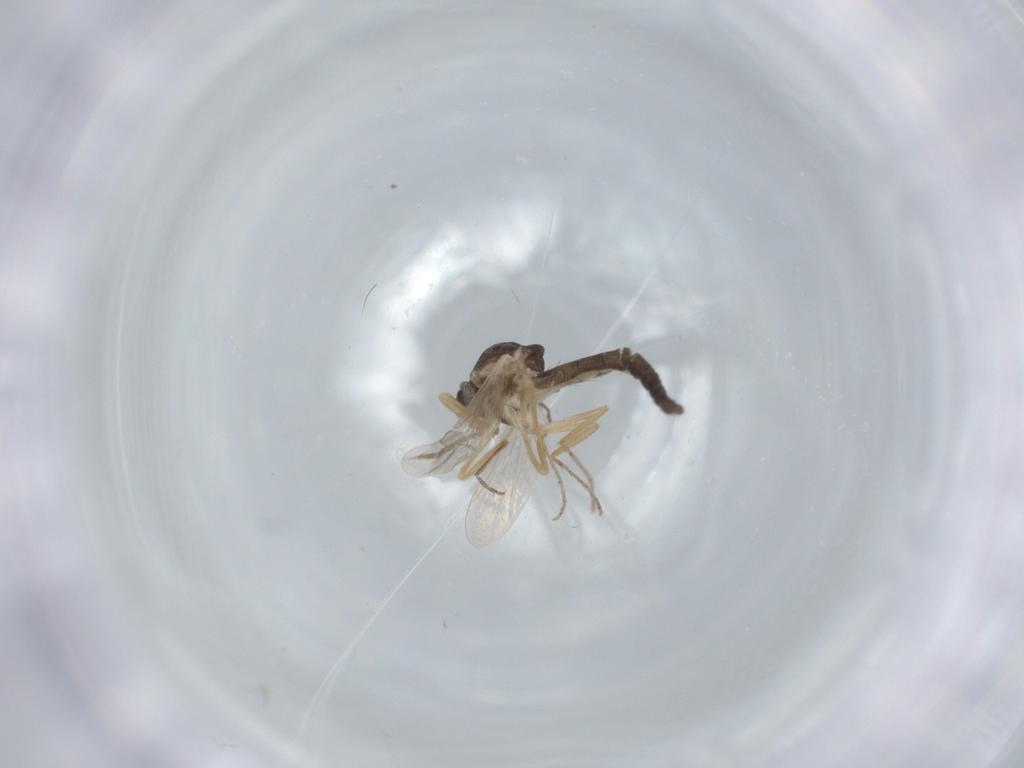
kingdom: Animalia
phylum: Arthropoda
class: Insecta
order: Diptera
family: Ceratopogonidae
